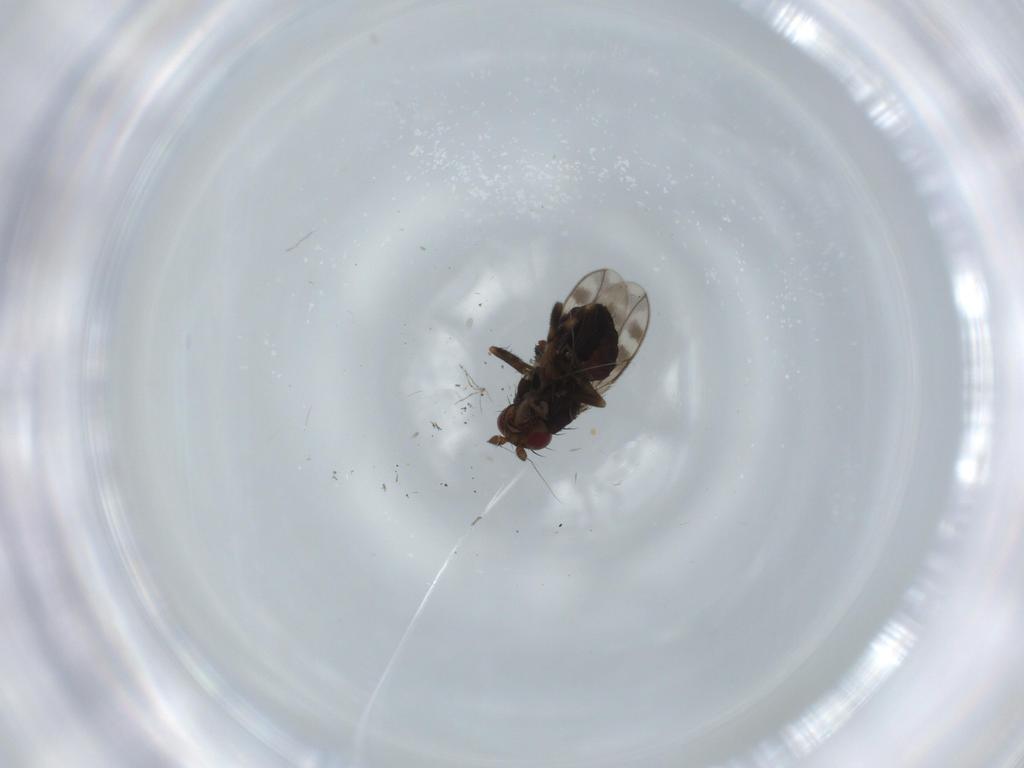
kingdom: Animalia
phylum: Arthropoda
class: Insecta
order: Diptera
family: Sphaeroceridae
